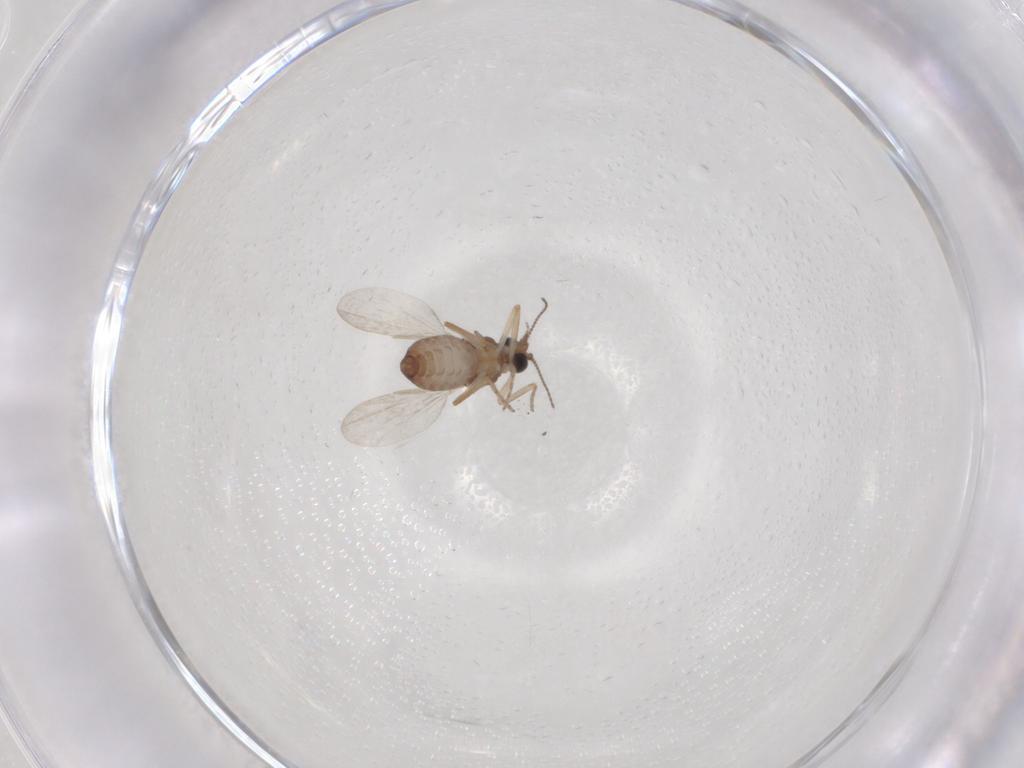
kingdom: Animalia
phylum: Arthropoda
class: Insecta
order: Diptera
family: Ceratopogonidae
